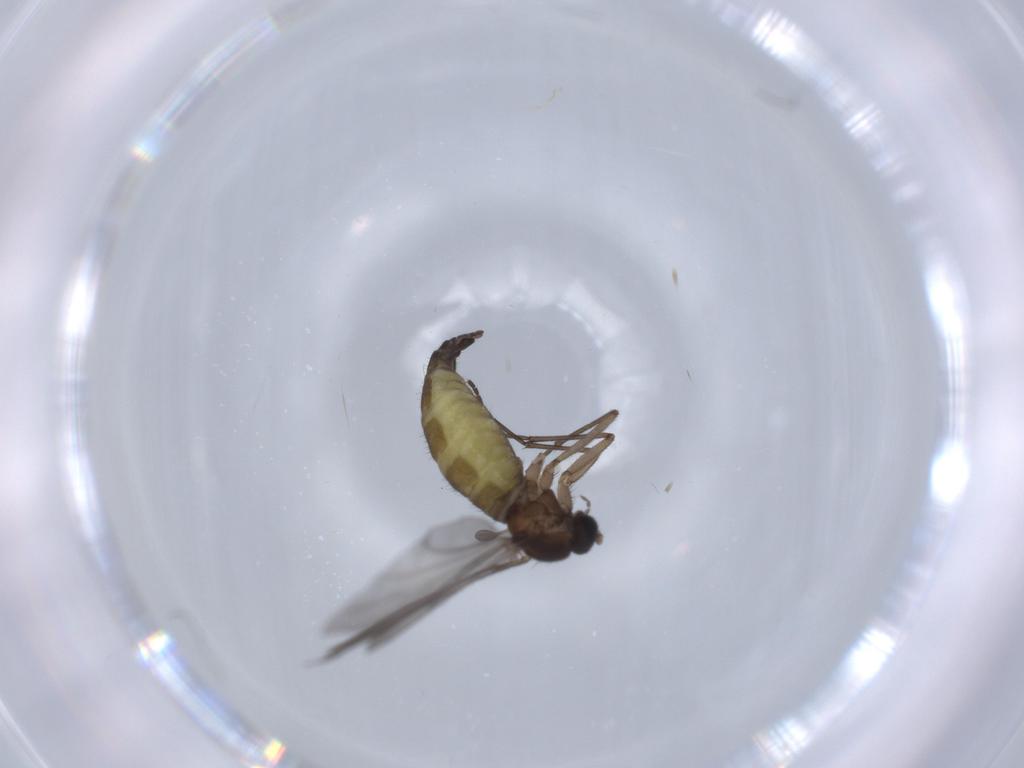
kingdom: Animalia
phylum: Arthropoda
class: Insecta
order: Diptera
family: Sciaridae
